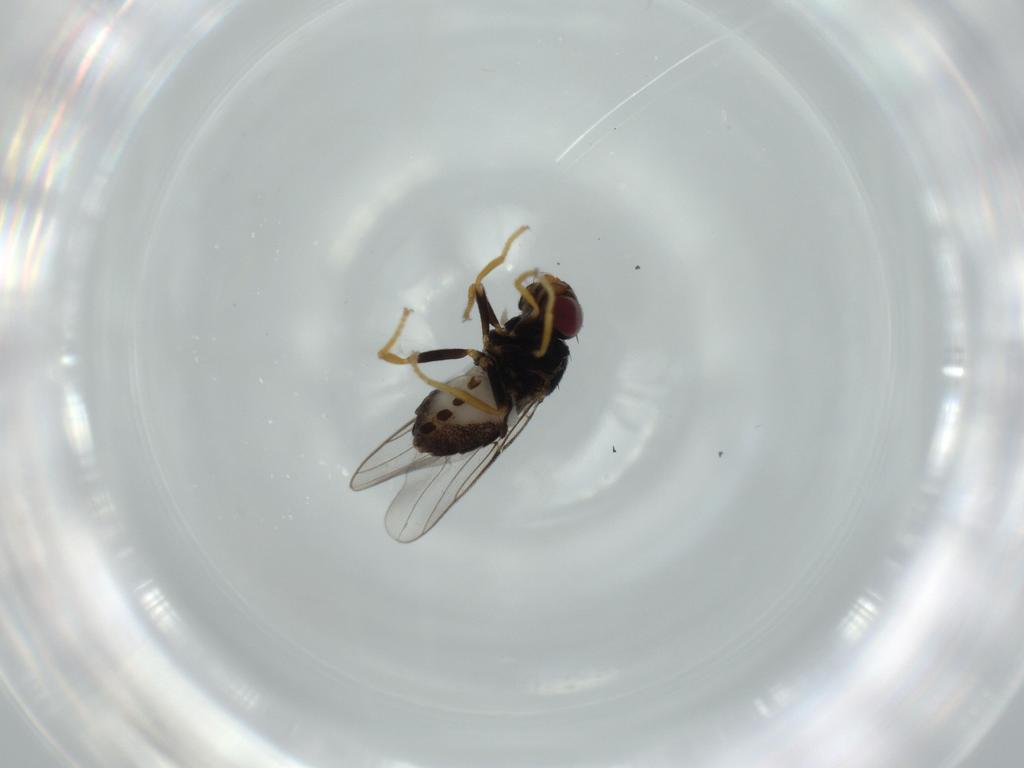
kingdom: Animalia
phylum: Arthropoda
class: Insecta
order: Diptera
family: Chloropidae
